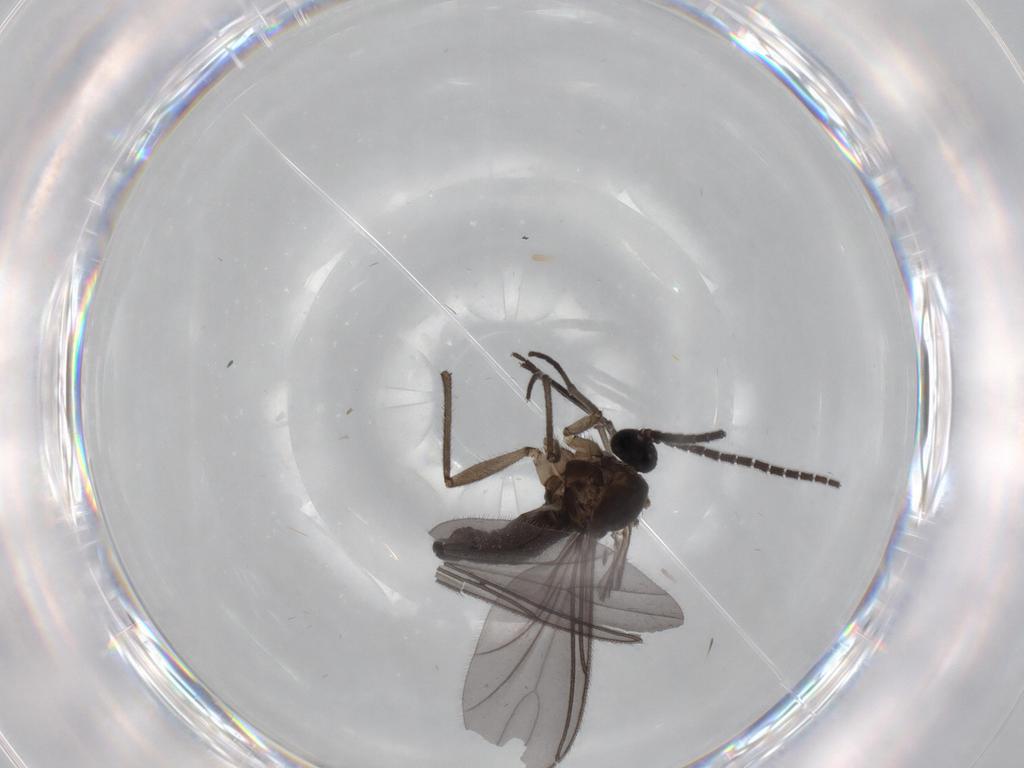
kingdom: Animalia
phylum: Arthropoda
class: Insecta
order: Diptera
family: Sciaridae
